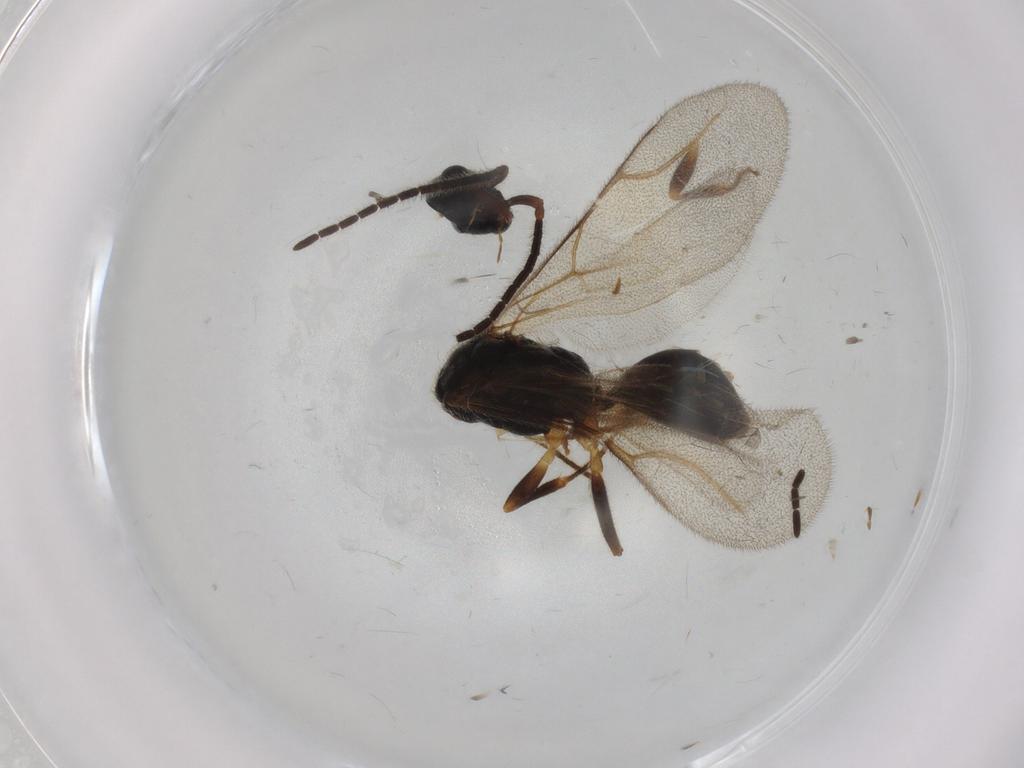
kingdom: Animalia
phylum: Arthropoda
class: Insecta
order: Hymenoptera
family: Bethylidae
